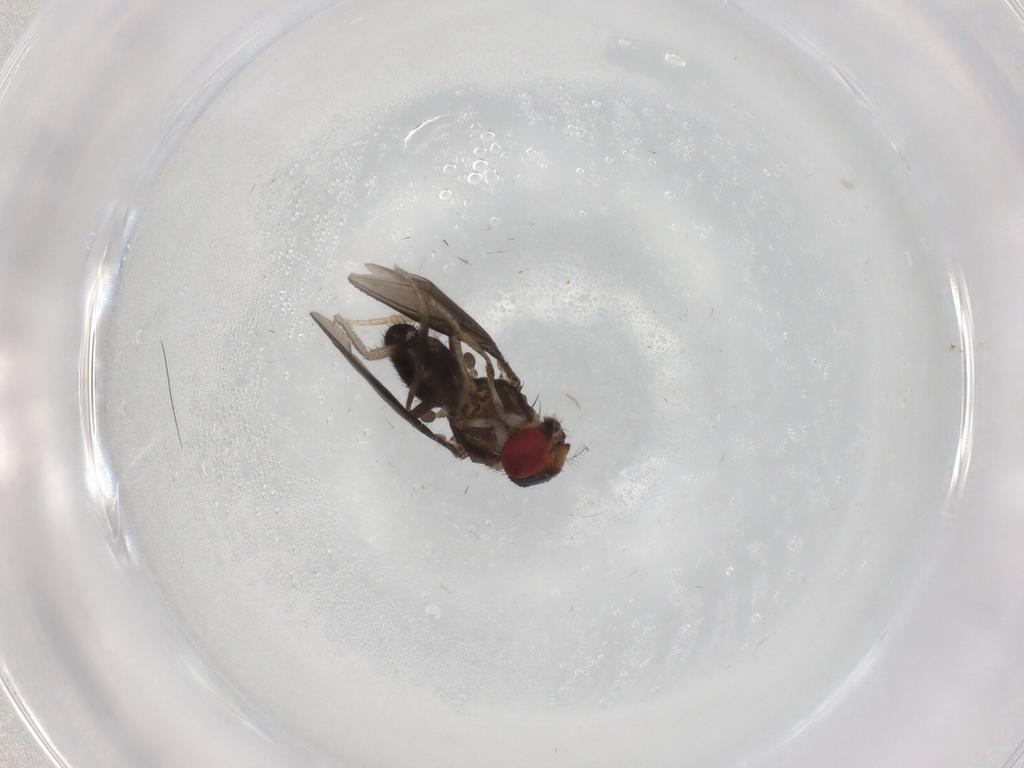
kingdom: Animalia
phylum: Arthropoda
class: Insecta
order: Diptera
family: Drosophilidae
